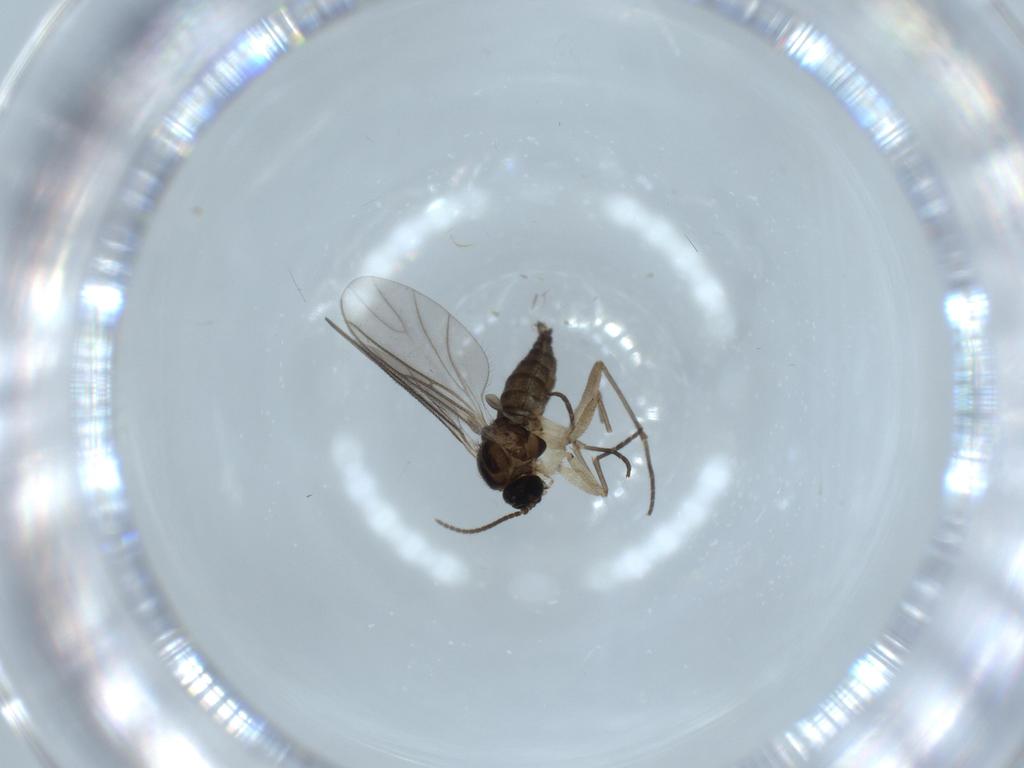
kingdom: Animalia
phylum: Arthropoda
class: Insecta
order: Diptera
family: Sciaridae
